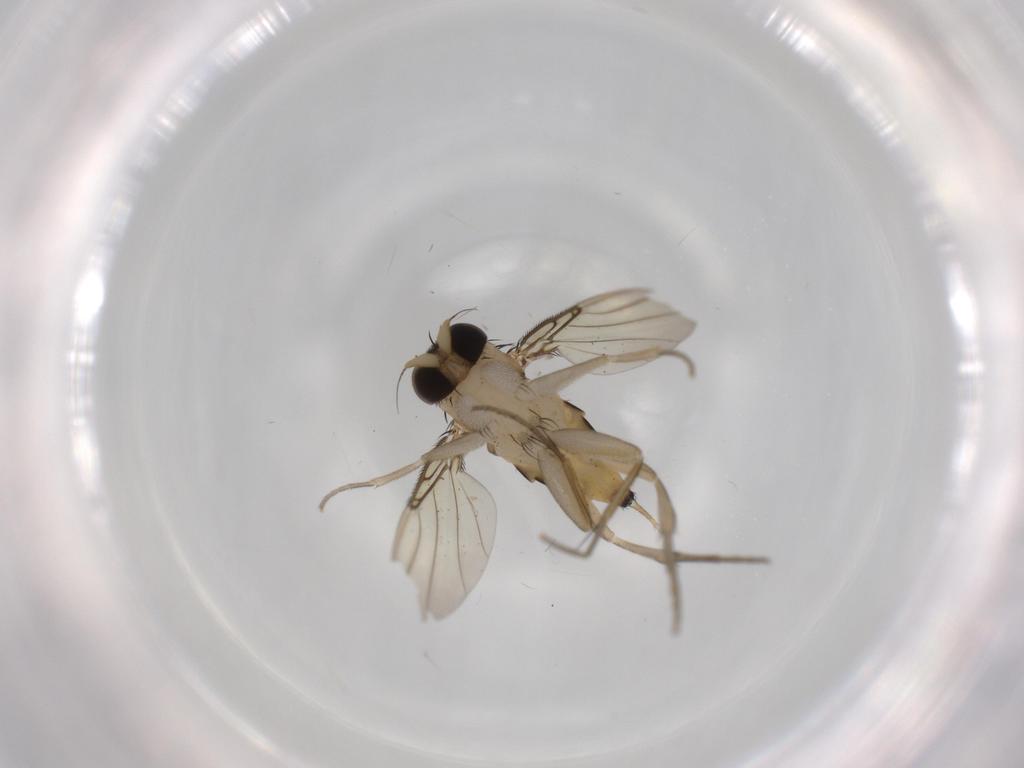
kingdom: Animalia
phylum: Arthropoda
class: Insecta
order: Diptera
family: Phoridae
